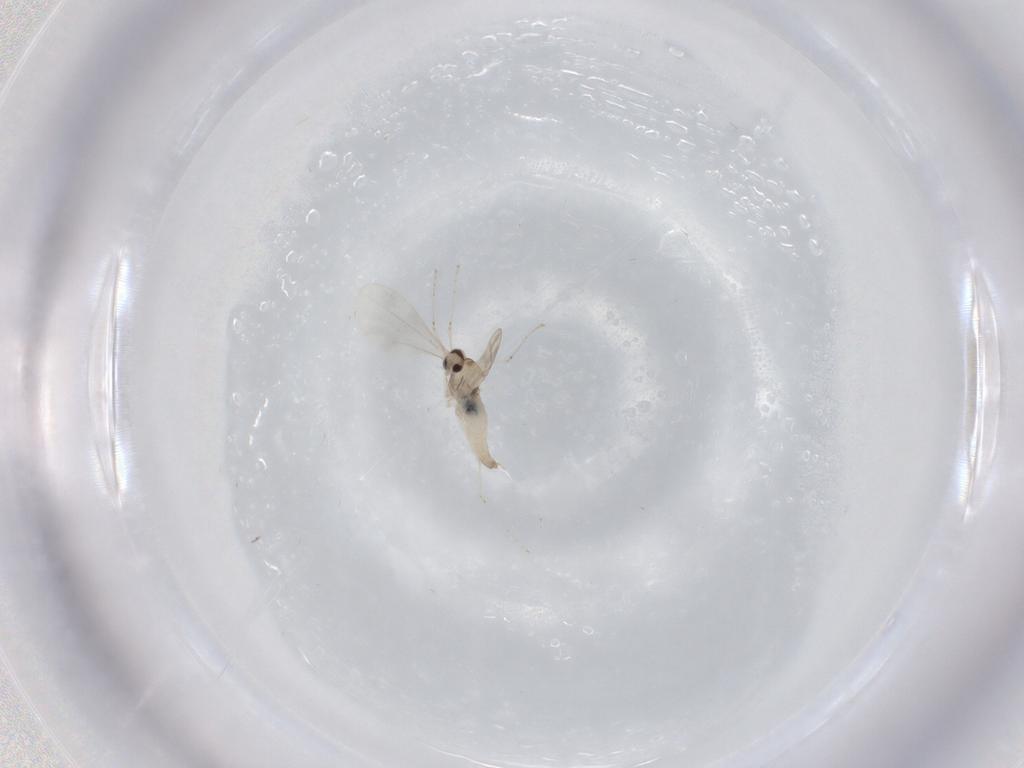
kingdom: Animalia
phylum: Arthropoda
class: Insecta
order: Diptera
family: Cecidomyiidae
